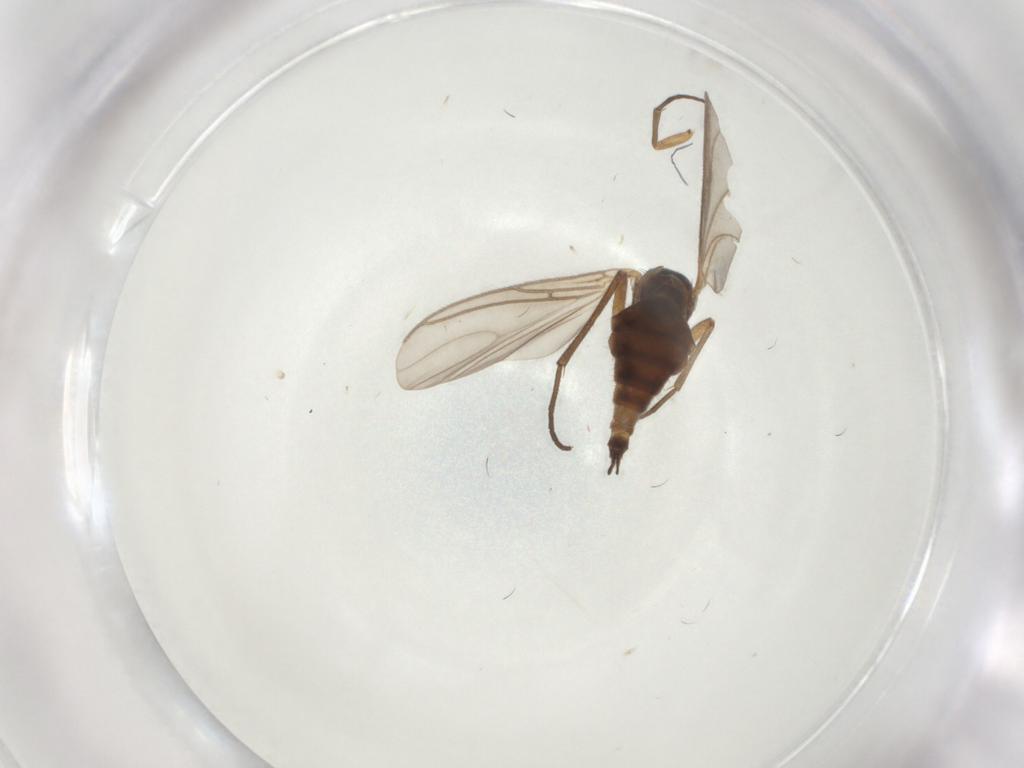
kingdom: Animalia
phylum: Arthropoda
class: Insecta
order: Diptera
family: Sciaridae
